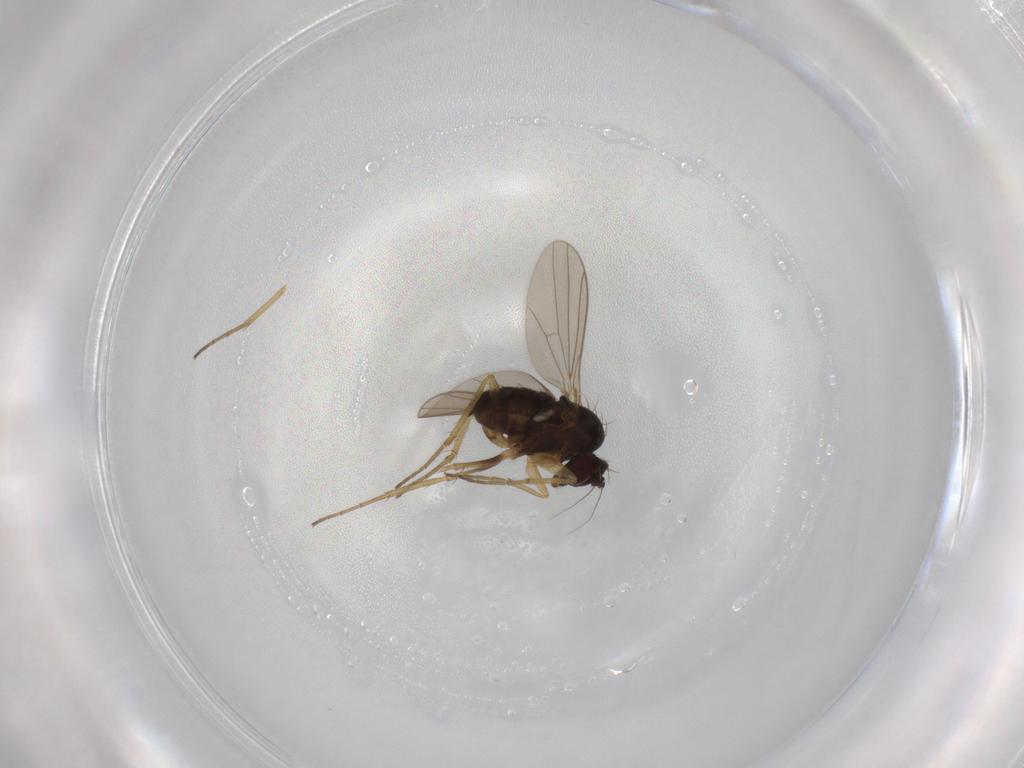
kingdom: Animalia
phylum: Arthropoda
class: Insecta
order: Diptera
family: Dolichopodidae
